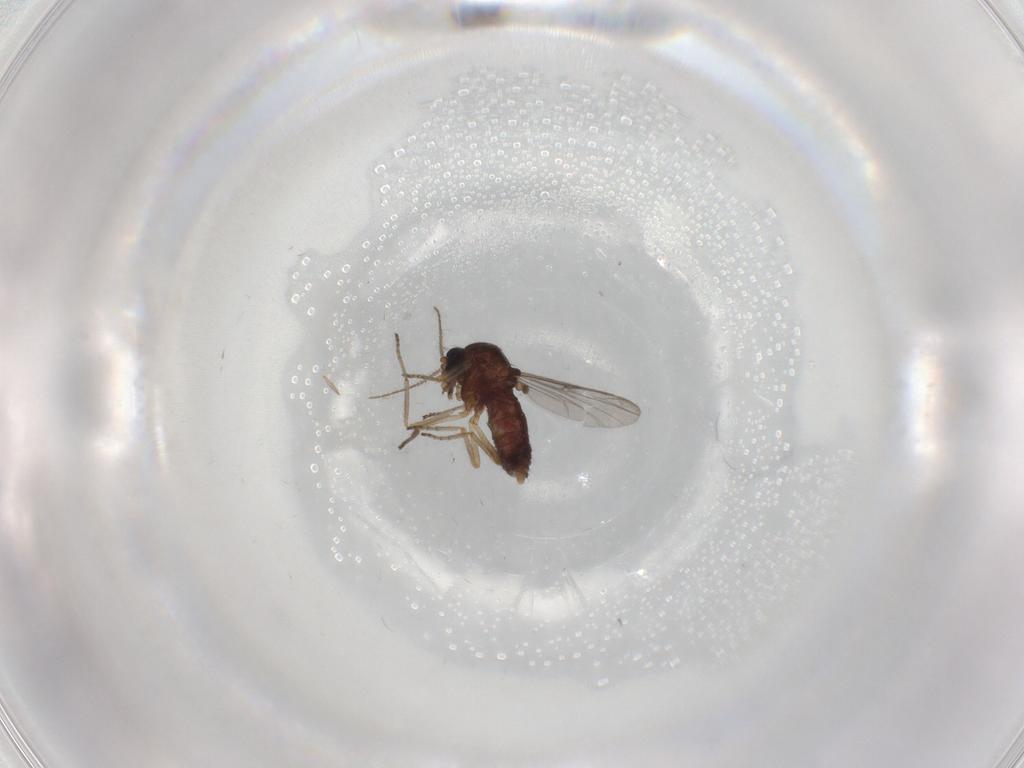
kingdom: Animalia
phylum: Arthropoda
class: Insecta
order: Diptera
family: Ceratopogonidae
